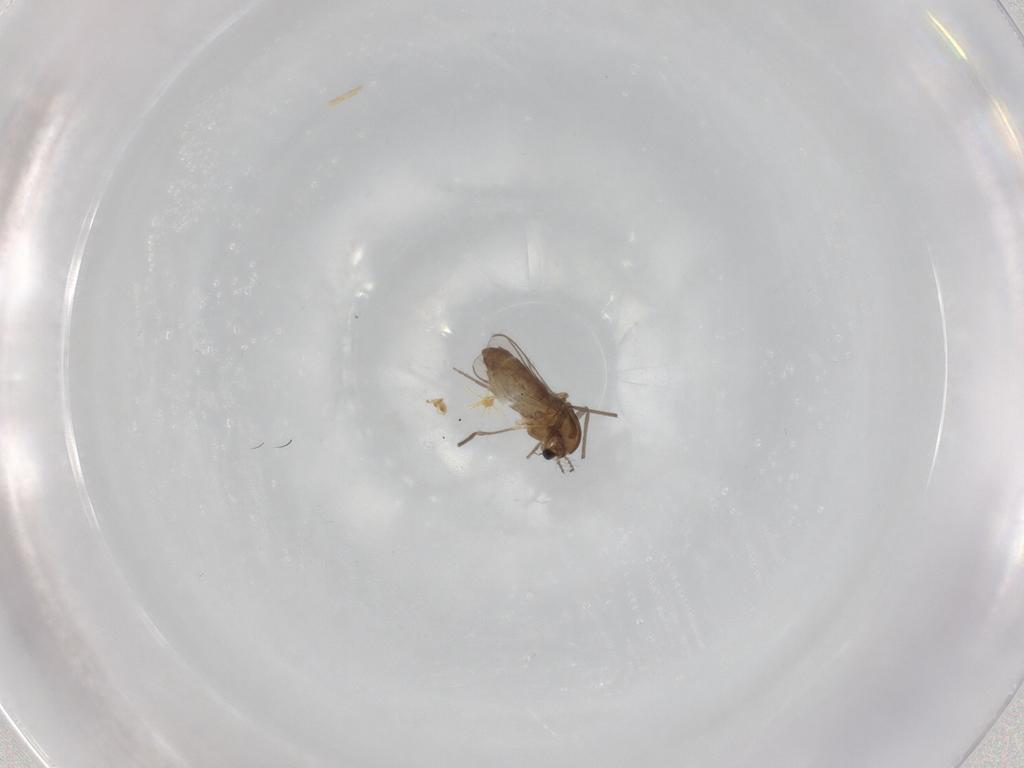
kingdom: Animalia
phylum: Arthropoda
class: Insecta
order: Diptera
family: Chironomidae
